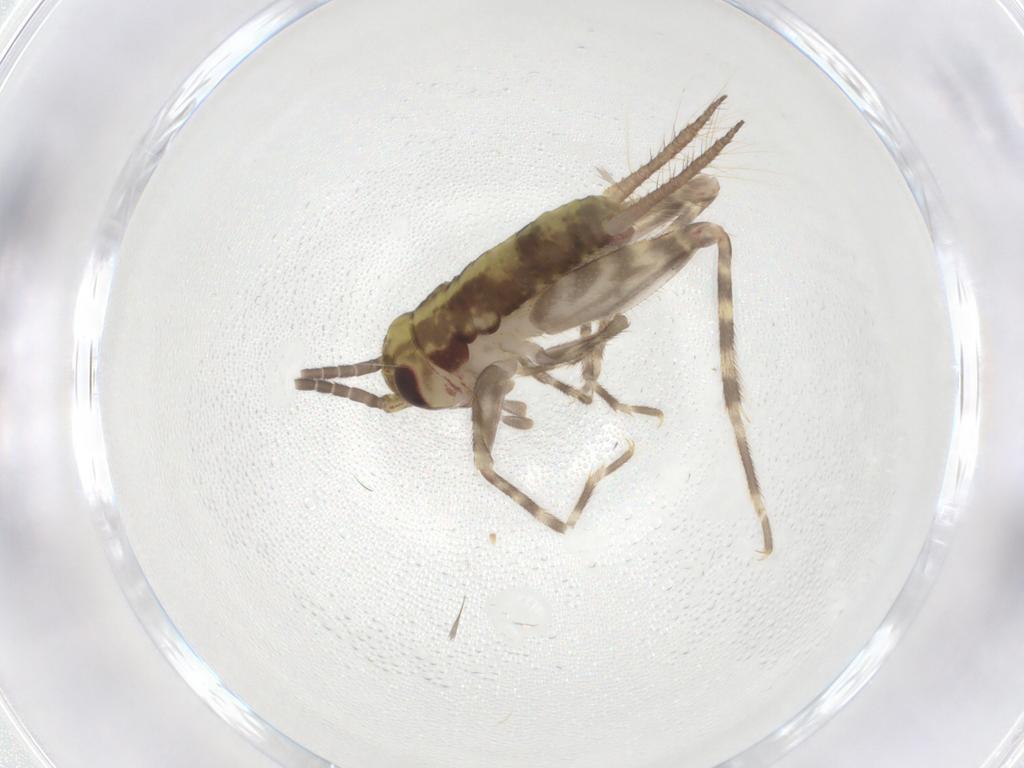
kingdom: Animalia
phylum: Arthropoda
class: Insecta
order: Orthoptera
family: Gryllidae
